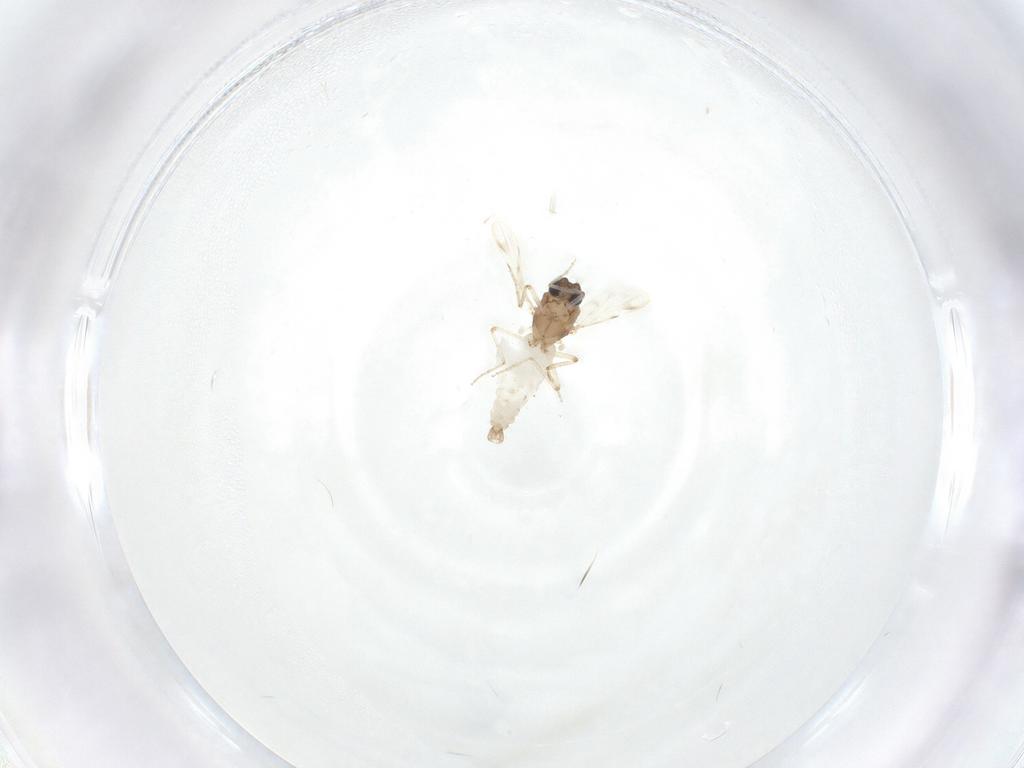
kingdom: Animalia
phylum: Arthropoda
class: Insecta
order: Diptera
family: Ceratopogonidae
